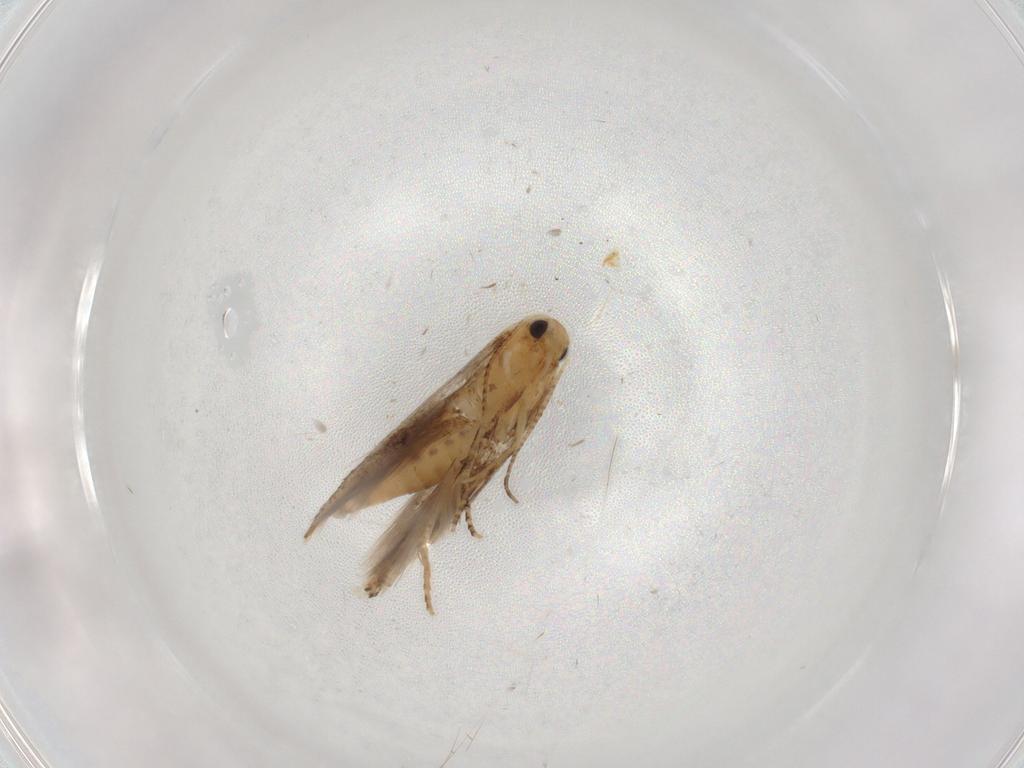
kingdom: Animalia
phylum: Arthropoda
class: Insecta
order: Lepidoptera
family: Bucculatricidae
